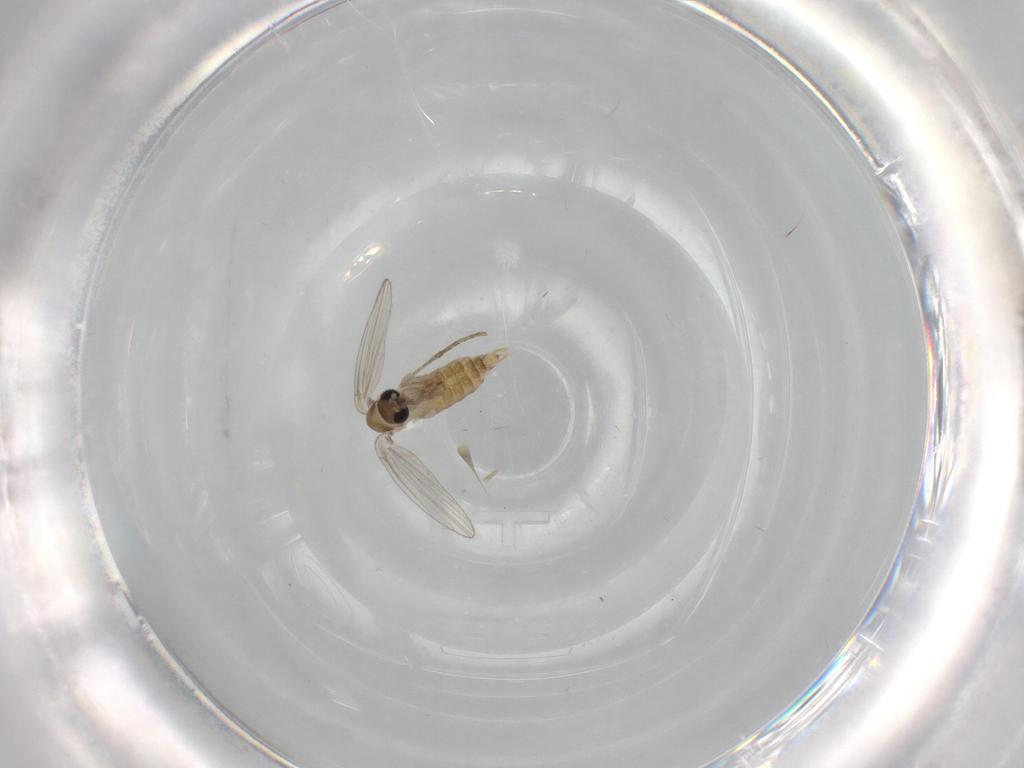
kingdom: Animalia
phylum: Arthropoda
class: Insecta
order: Diptera
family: Psychodidae
